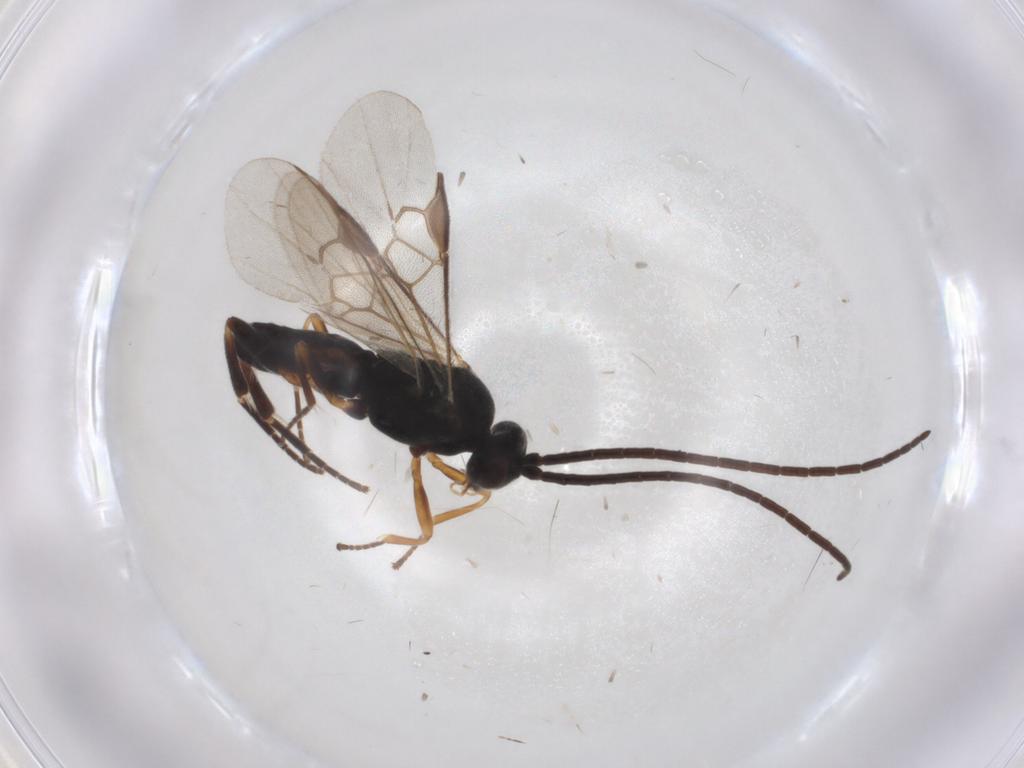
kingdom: Animalia
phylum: Arthropoda
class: Insecta
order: Hymenoptera
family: Braconidae
